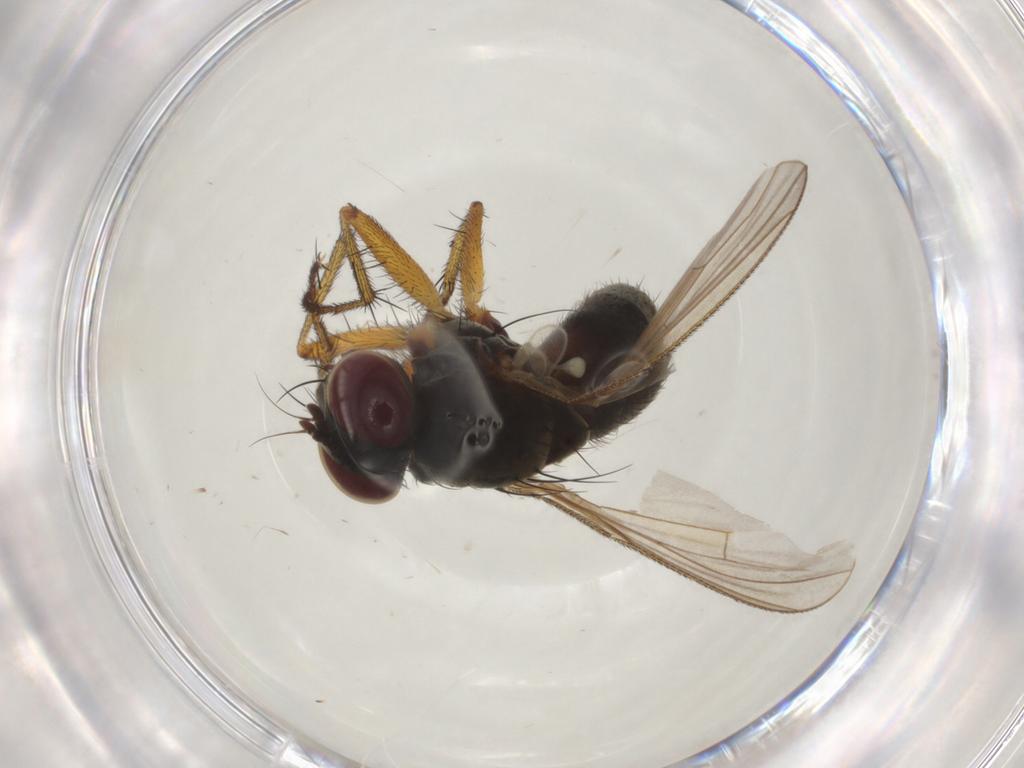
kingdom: Animalia
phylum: Arthropoda
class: Insecta
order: Diptera
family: Muscidae
